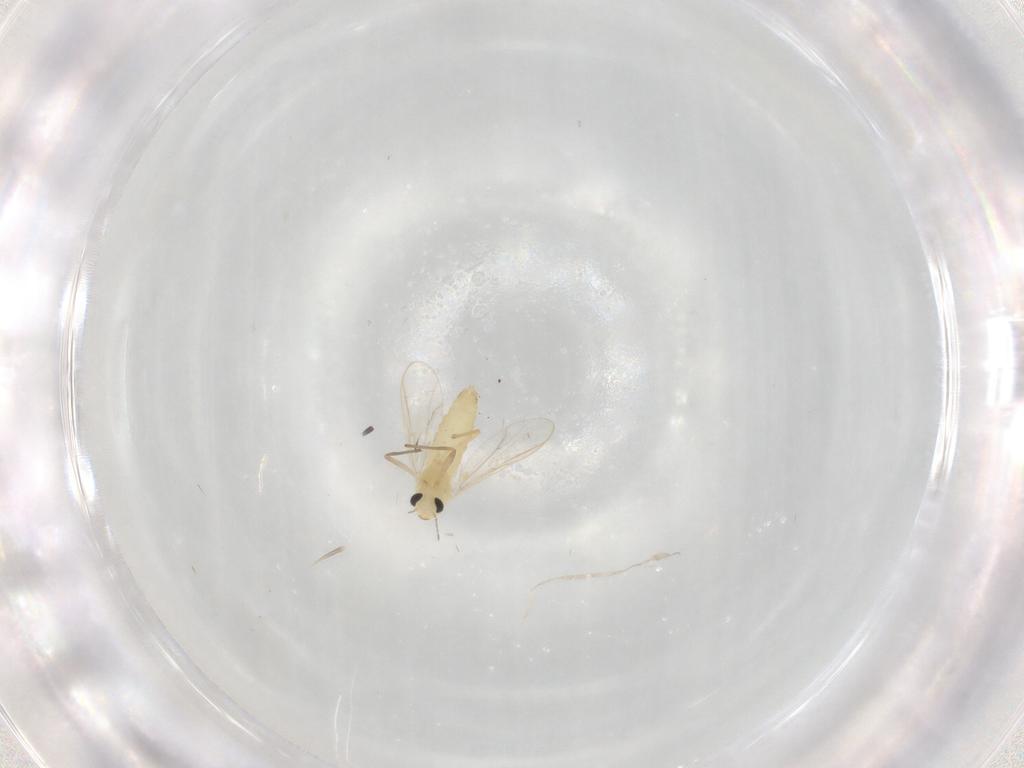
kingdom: Animalia
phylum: Arthropoda
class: Insecta
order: Diptera
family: Chironomidae
